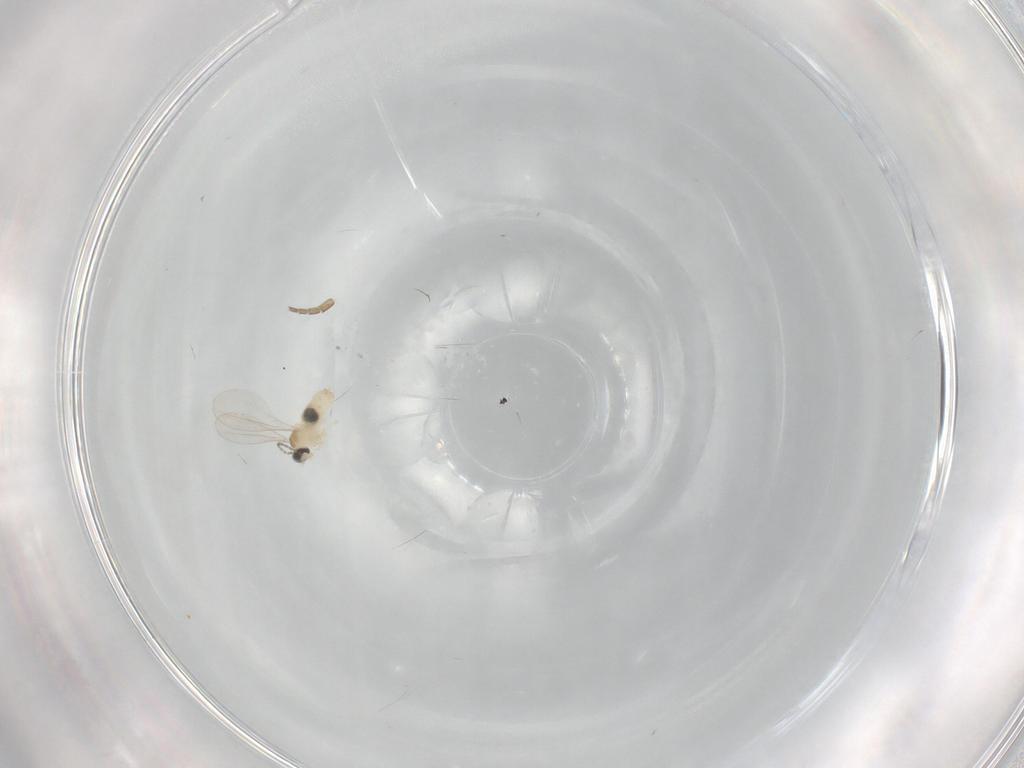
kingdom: Animalia
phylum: Arthropoda
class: Insecta
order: Diptera
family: Cecidomyiidae
